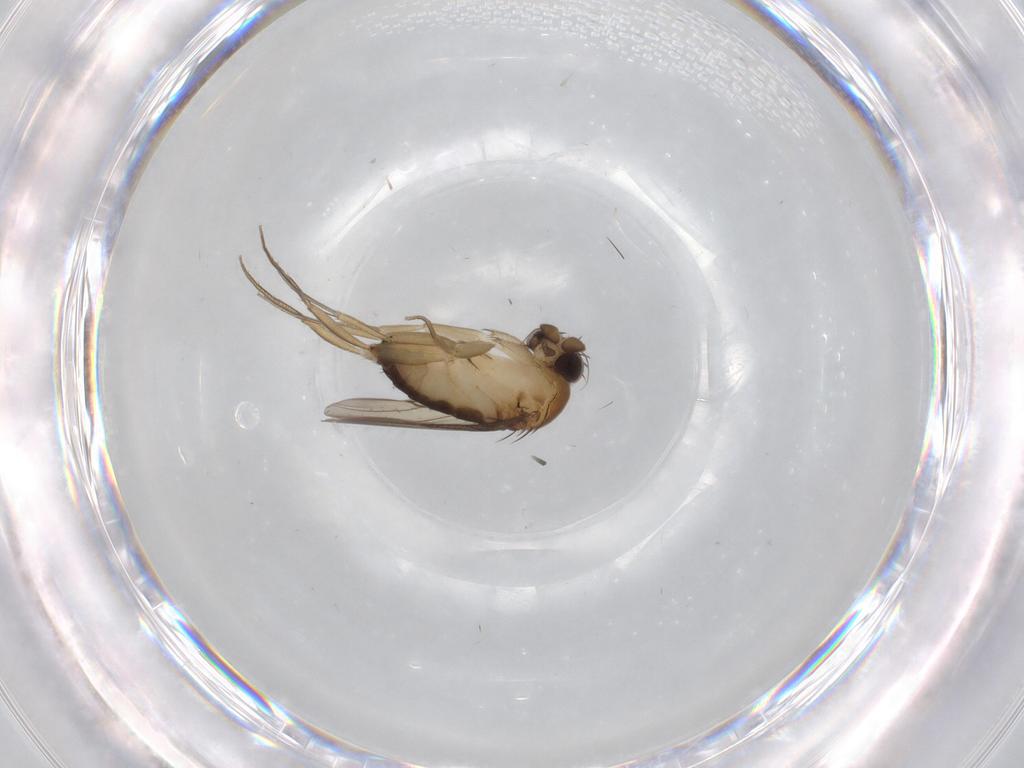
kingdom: Animalia
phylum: Arthropoda
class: Insecta
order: Diptera
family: Phoridae
